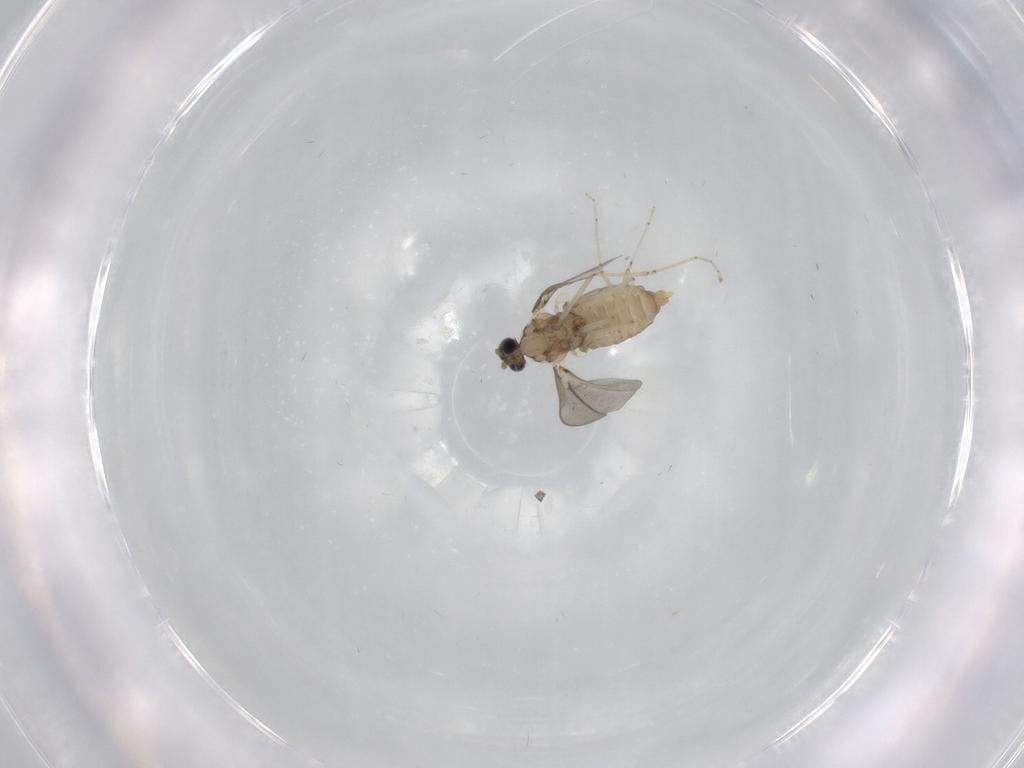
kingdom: Animalia
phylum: Arthropoda
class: Insecta
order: Diptera
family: Cecidomyiidae
